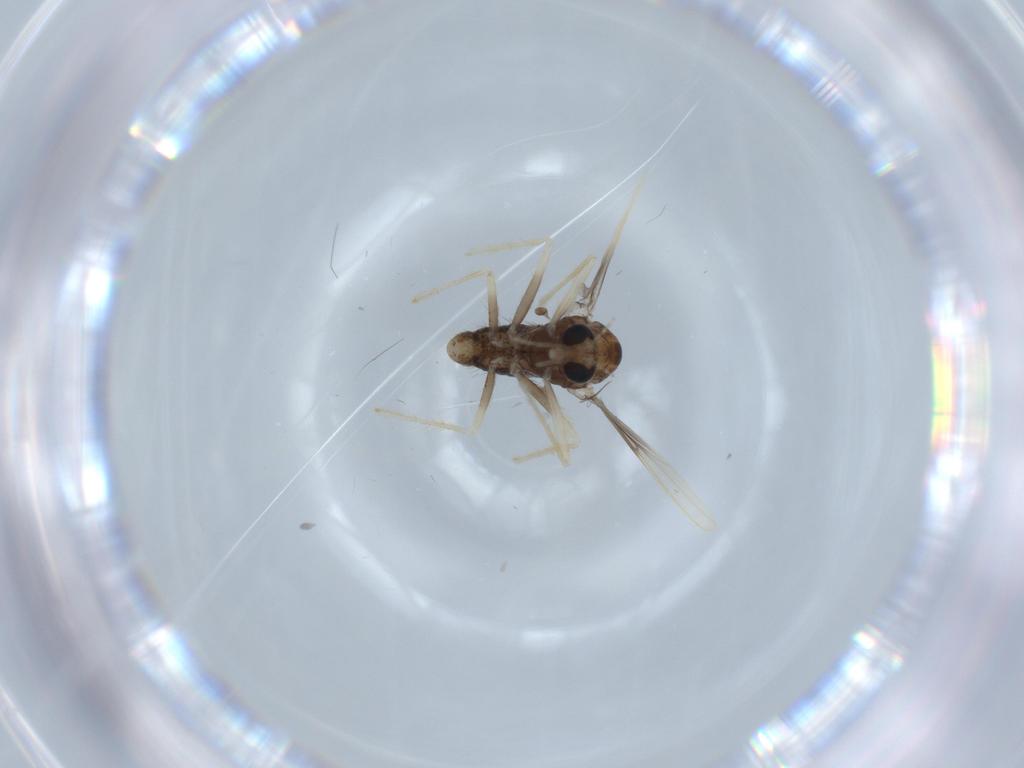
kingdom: Animalia
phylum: Arthropoda
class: Insecta
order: Diptera
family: Chironomidae
